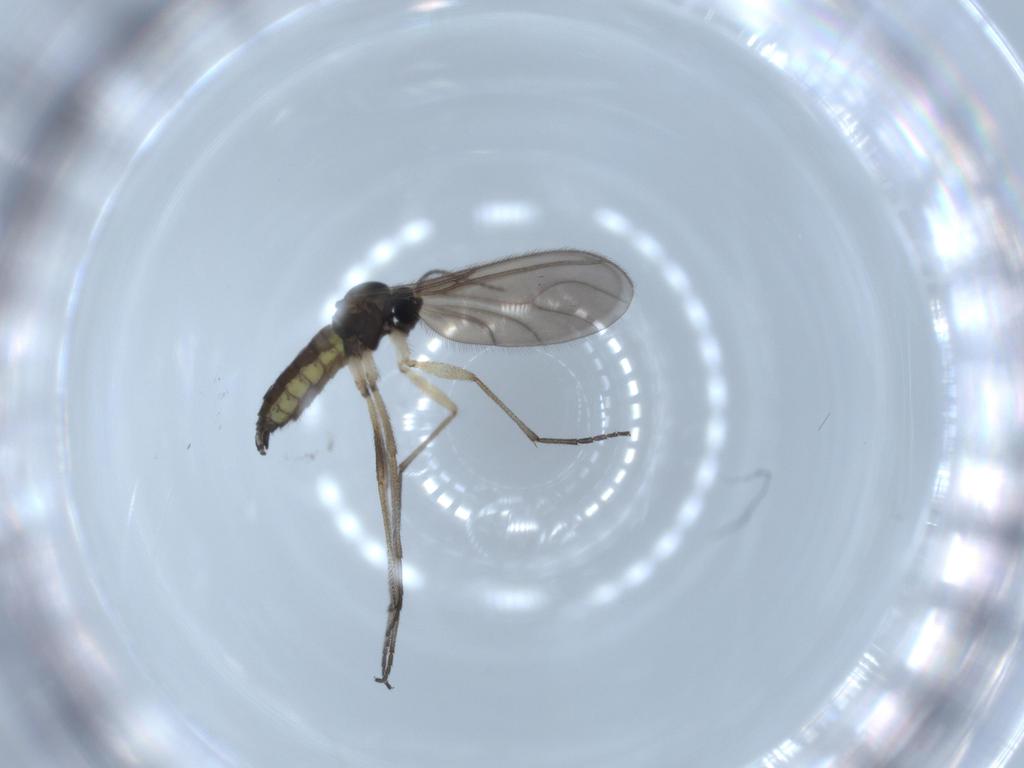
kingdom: Animalia
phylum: Arthropoda
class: Insecta
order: Diptera
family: Sciaridae
